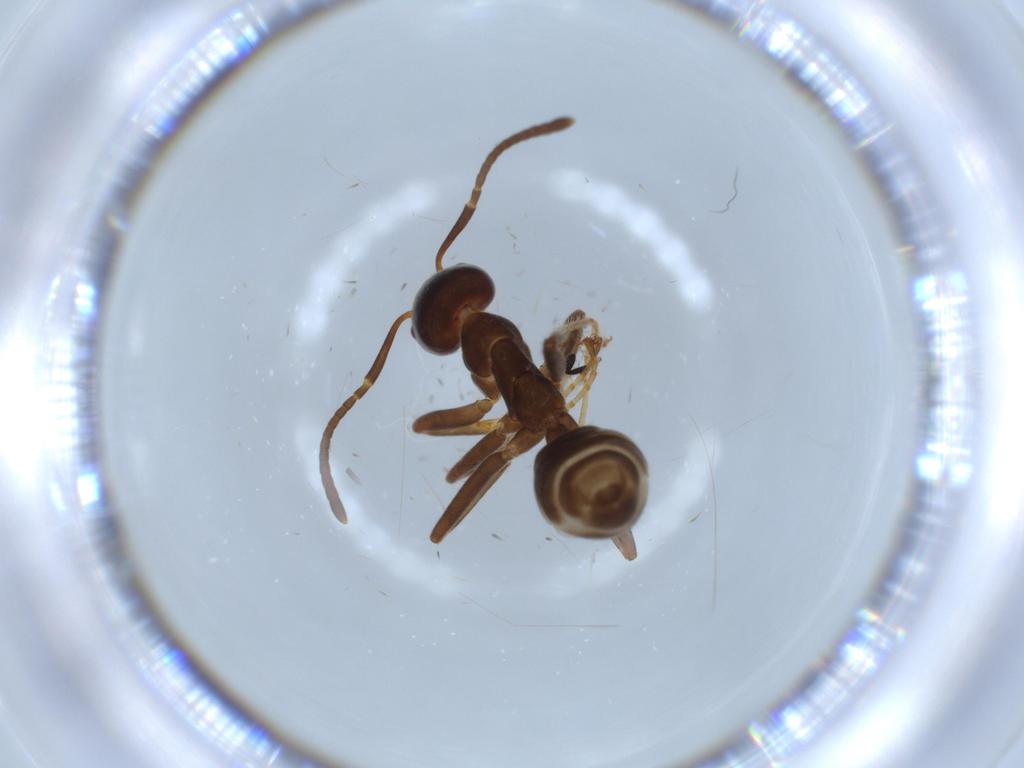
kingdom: Animalia
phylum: Arthropoda
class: Insecta
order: Hymenoptera
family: Formicidae
